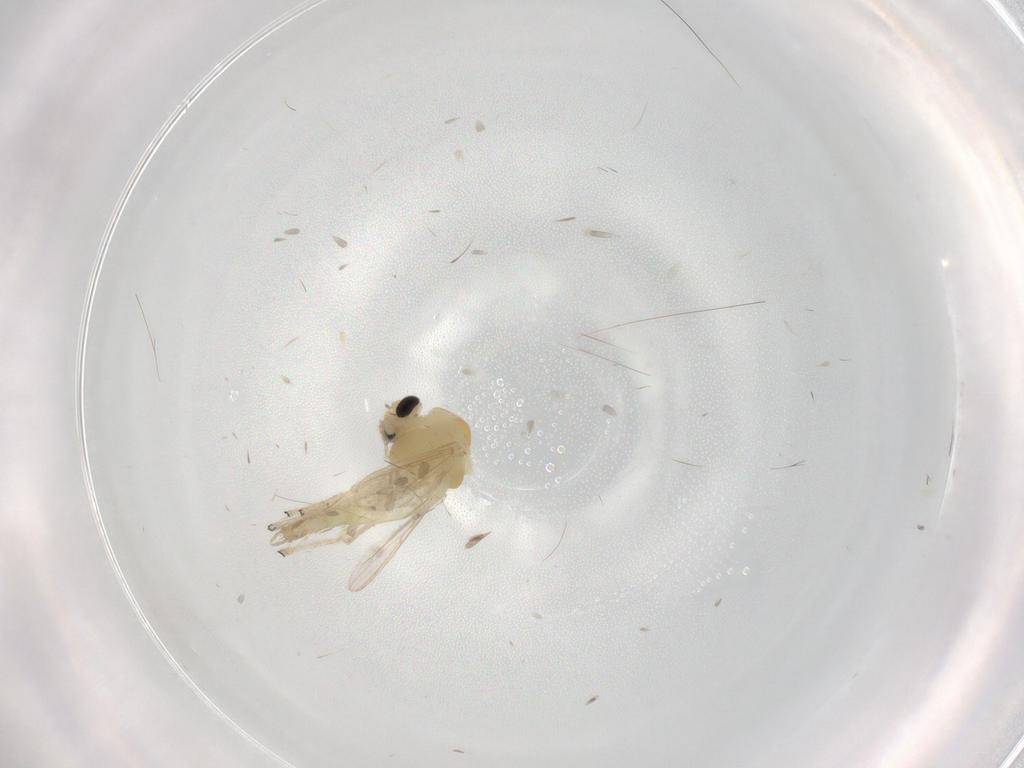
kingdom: Animalia
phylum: Arthropoda
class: Insecta
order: Diptera
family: Chironomidae
